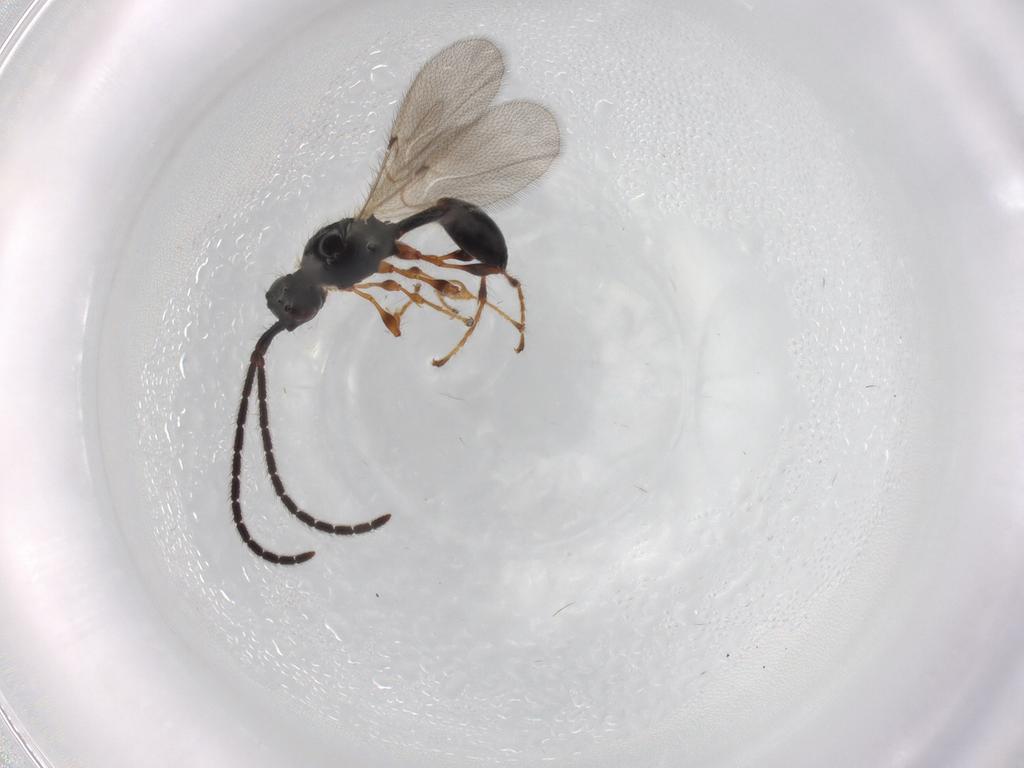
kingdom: Animalia
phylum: Arthropoda
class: Insecta
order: Hymenoptera
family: Diapriidae
